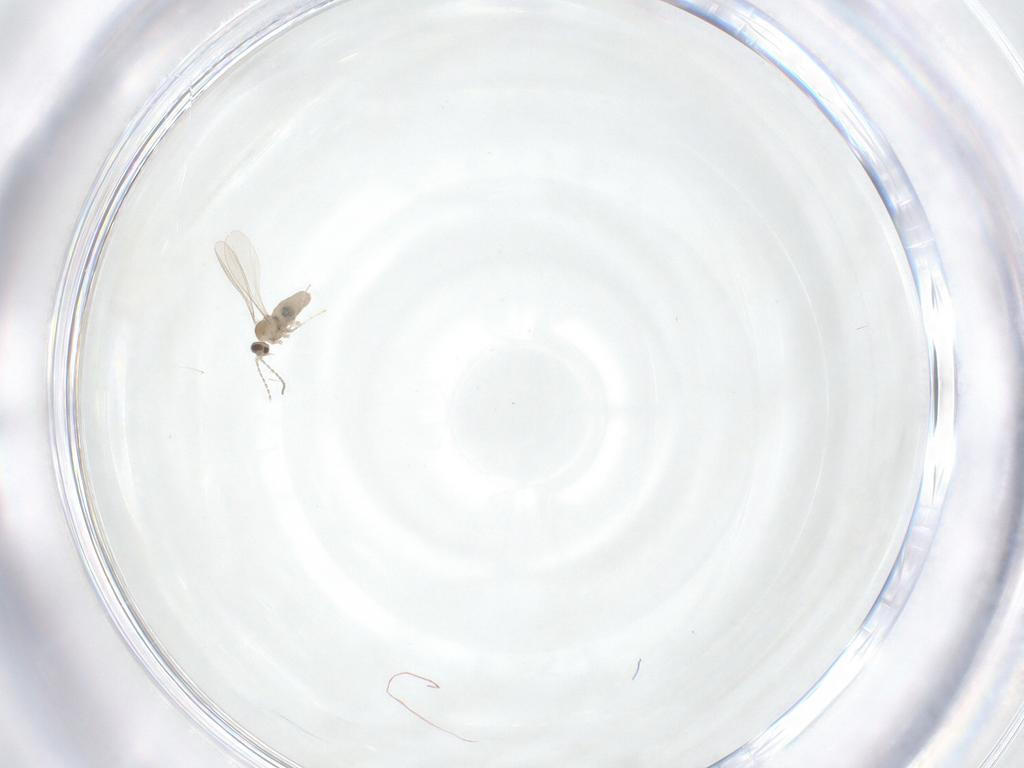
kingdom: Animalia
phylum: Arthropoda
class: Insecta
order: Diptera
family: Cecidomyiidae
